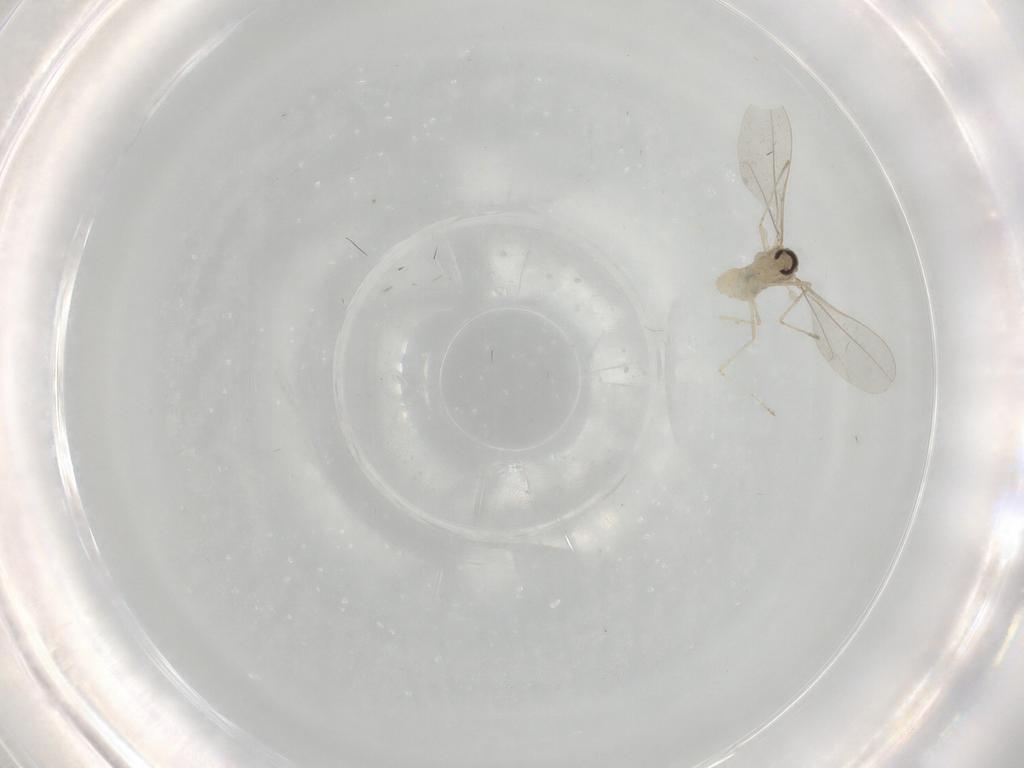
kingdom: Animalia
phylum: Arthropoda
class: Insecta
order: Diptera
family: Cecidomyiidae
